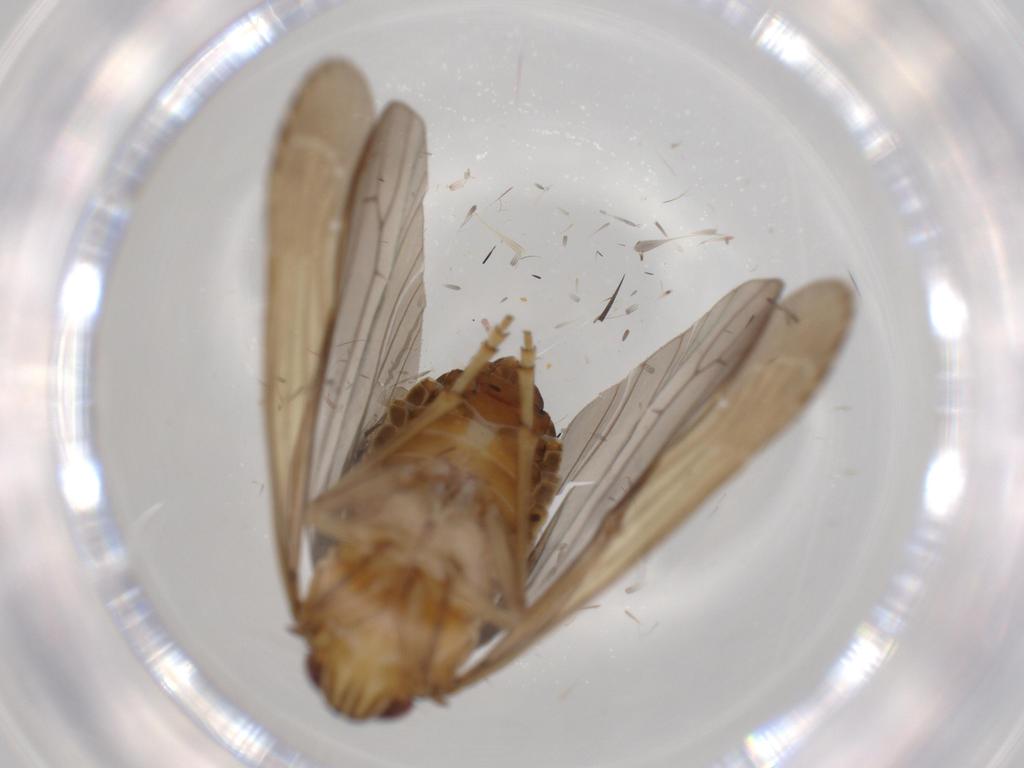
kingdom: Animalia
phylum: Arthropoda
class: Insecta
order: Hemiptera
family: Achilidae
